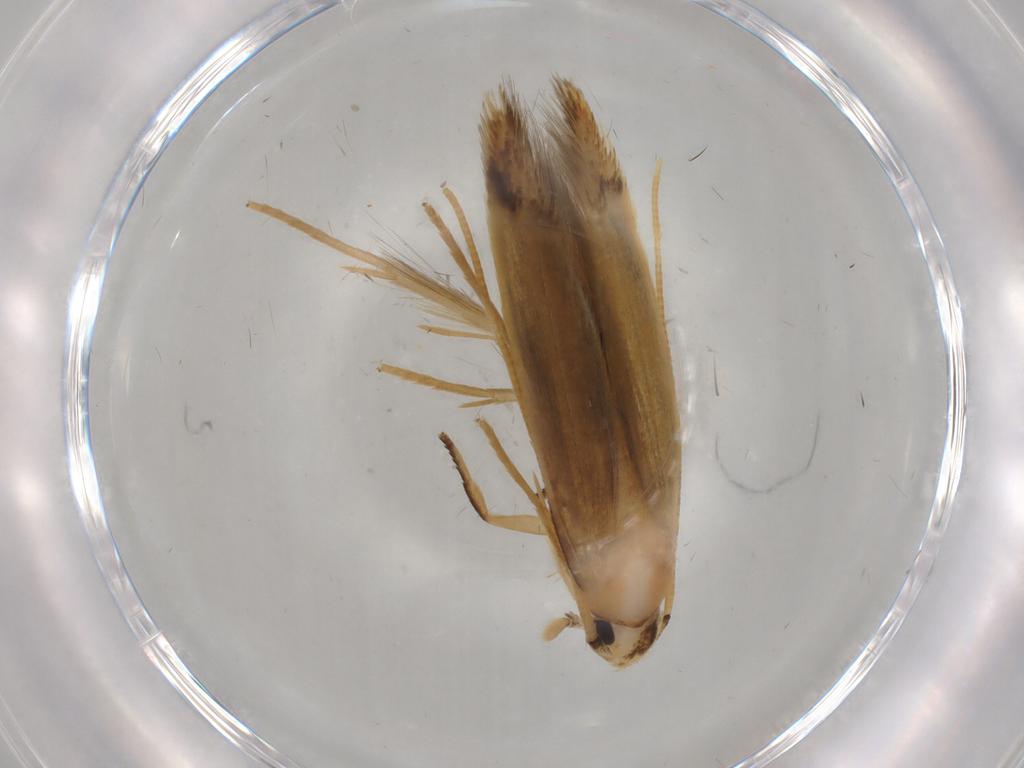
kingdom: Animalia
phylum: Arthropoda
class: Insecta
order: Lepidoptera
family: Cosmopterigidae
